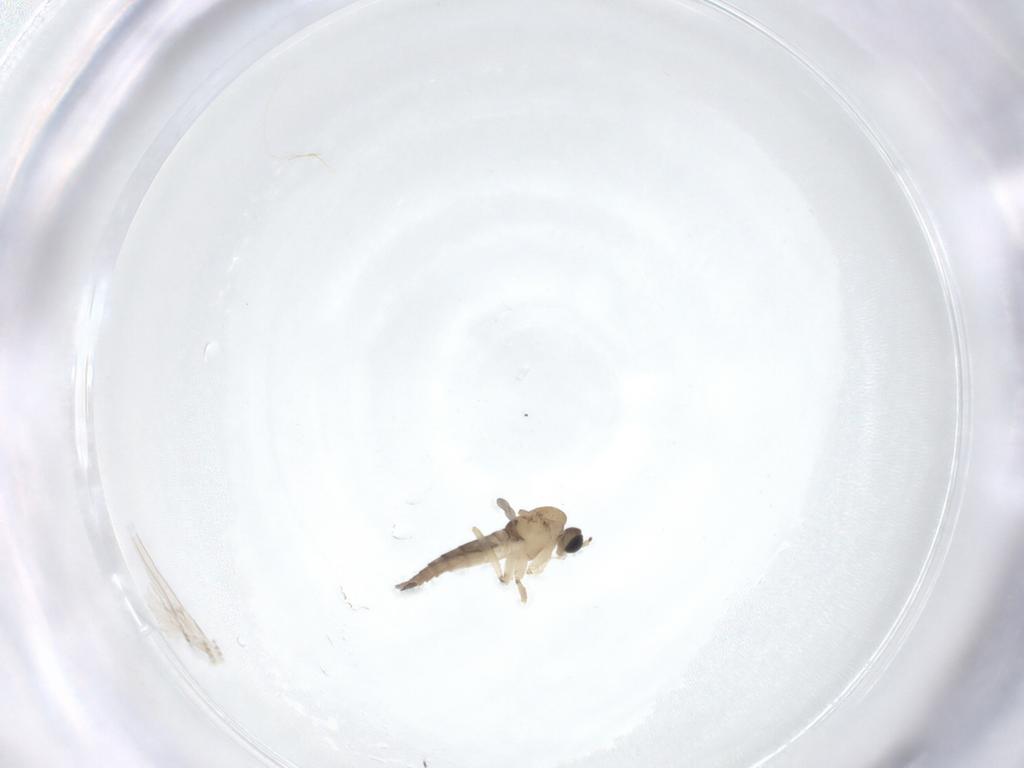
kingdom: Animalia
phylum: Arthropoda
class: Insecta
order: Diptera
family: Sciaridae
